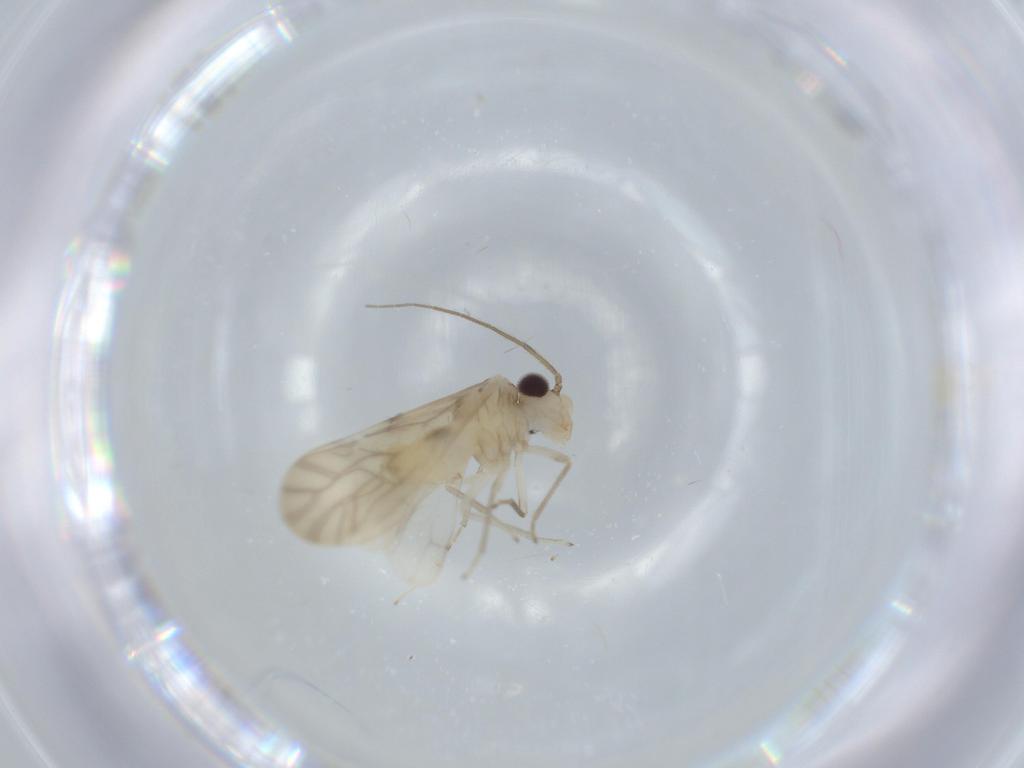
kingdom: Animalia
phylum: Arthropoda
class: Insecta
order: Psocodea
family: Caeciliusidae
